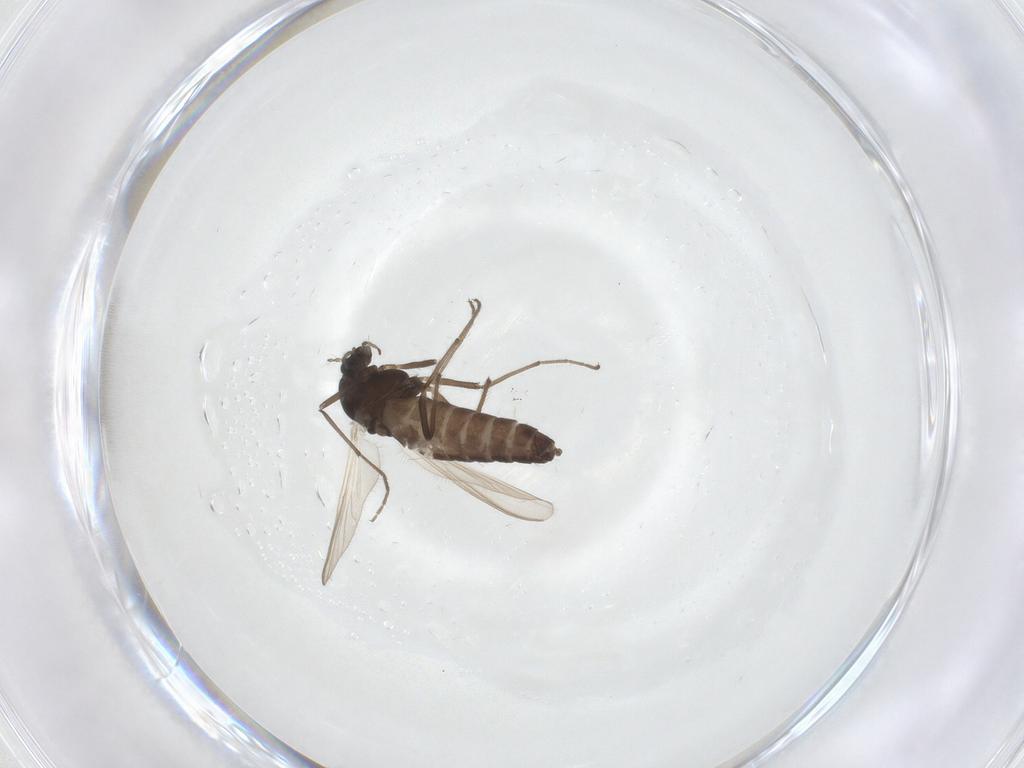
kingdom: Animalia
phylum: Arthropoda
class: Insecta
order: Diptera
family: Chironomidae
